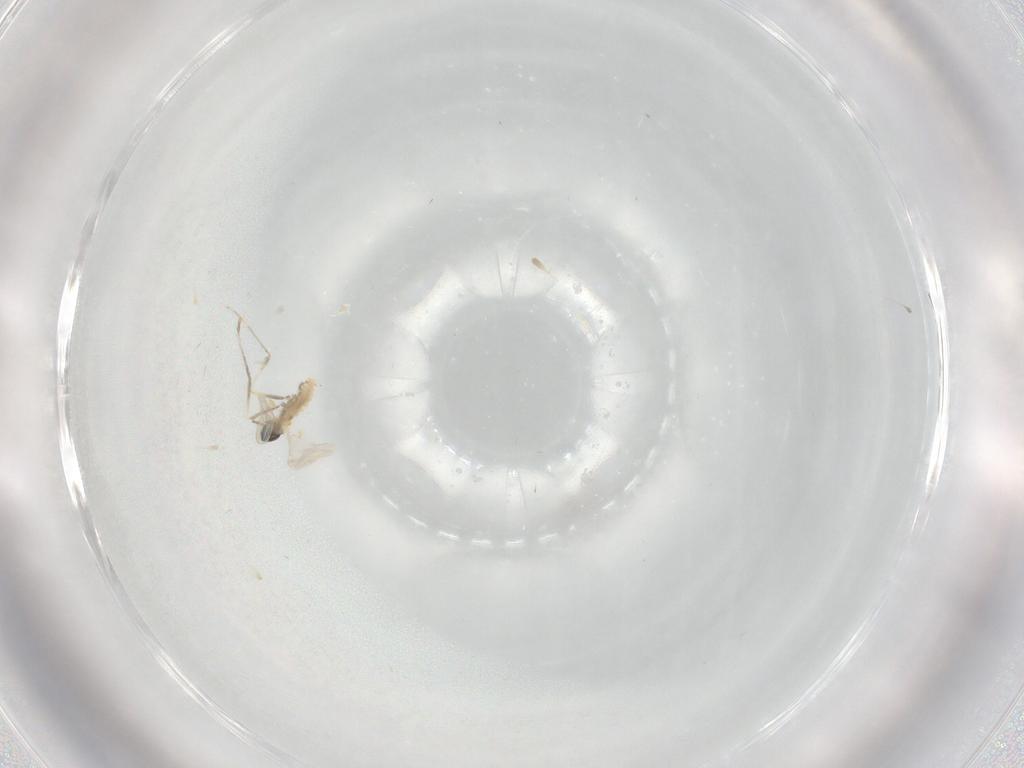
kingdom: Animalia
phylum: Arthropoda
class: Insecta
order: Diptera
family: Cecidomyiidae
